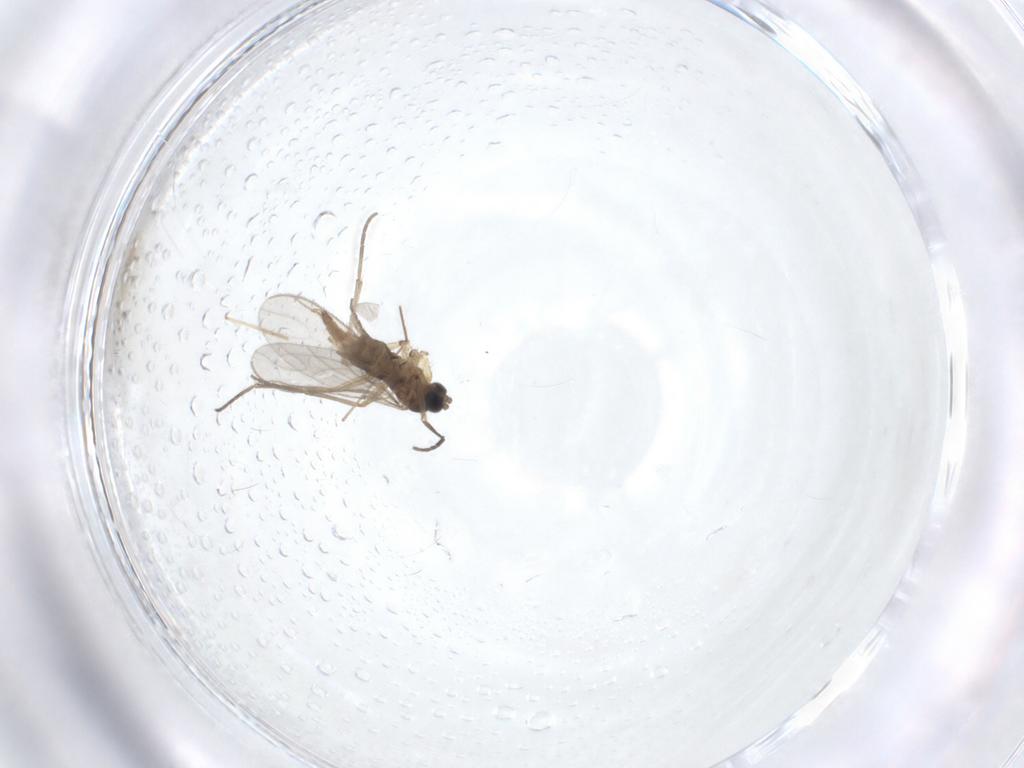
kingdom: Animalia
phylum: Arthropoda
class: Insecta
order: Diptera
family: Sciaridae
